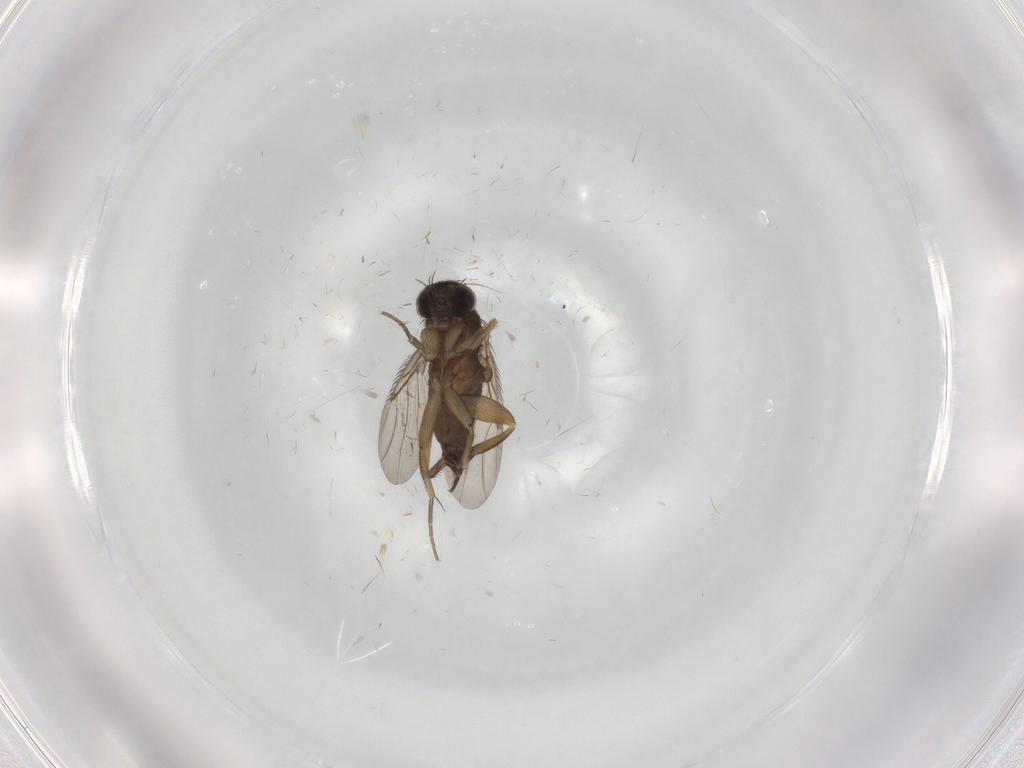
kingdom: Animalia
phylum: Arthropoda
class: Insecta
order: Diptera
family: Phoridae
